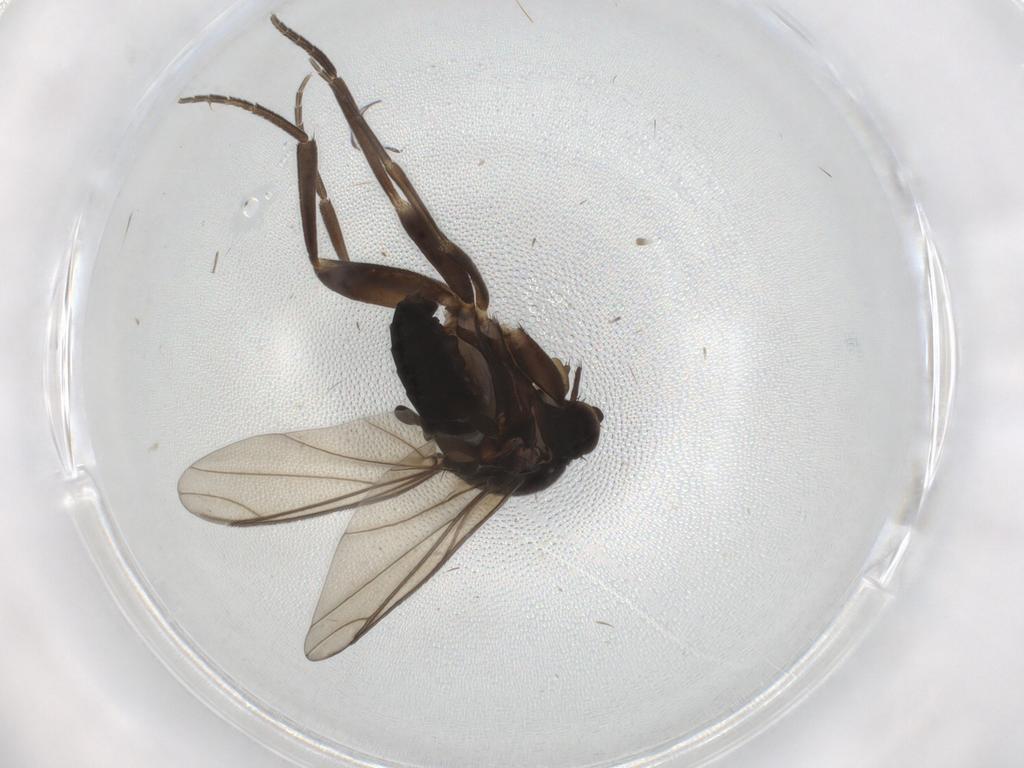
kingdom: Animalia
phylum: Arthropoda
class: Insecta
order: Diptera
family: Phoridae
